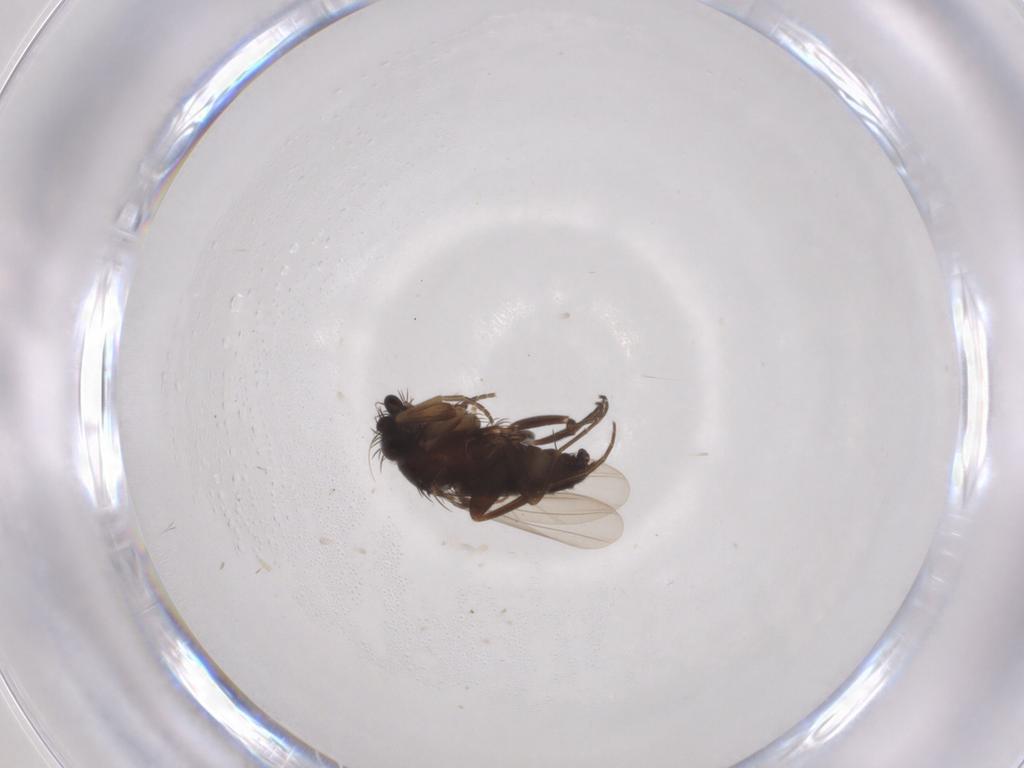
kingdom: Animalia
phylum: Arthropoda
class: Insecta
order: Diptera
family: Phoridae
